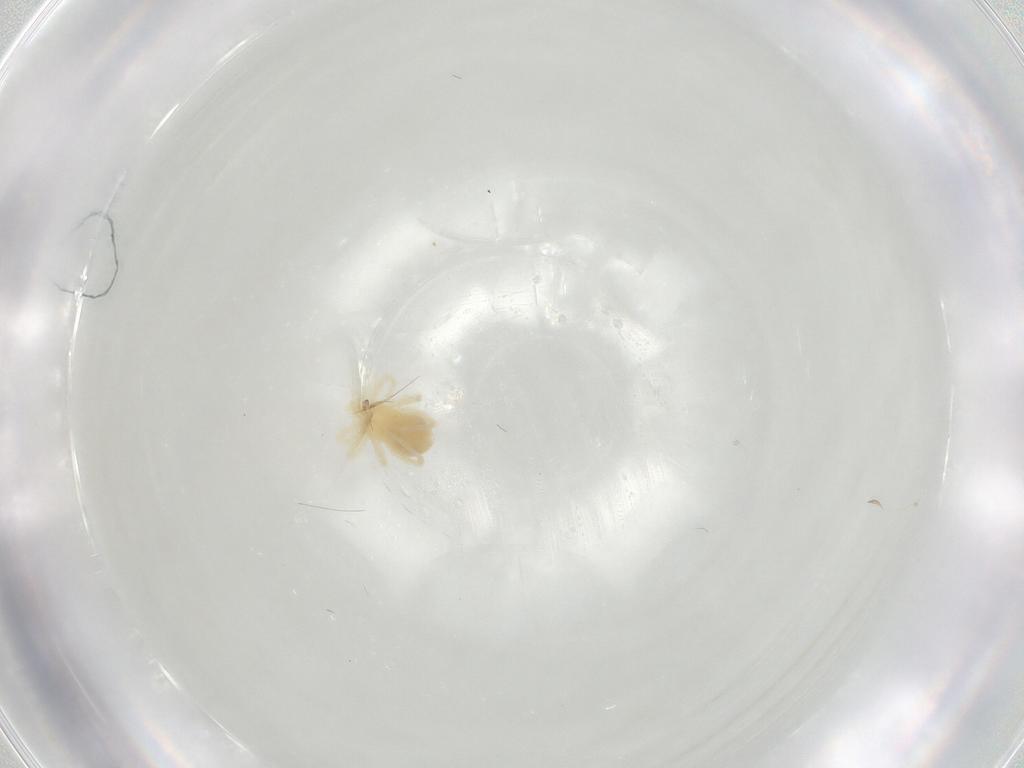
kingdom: Animalia
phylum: Arthropoda
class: Arachnida
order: Trombidiformes
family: Anystidae
